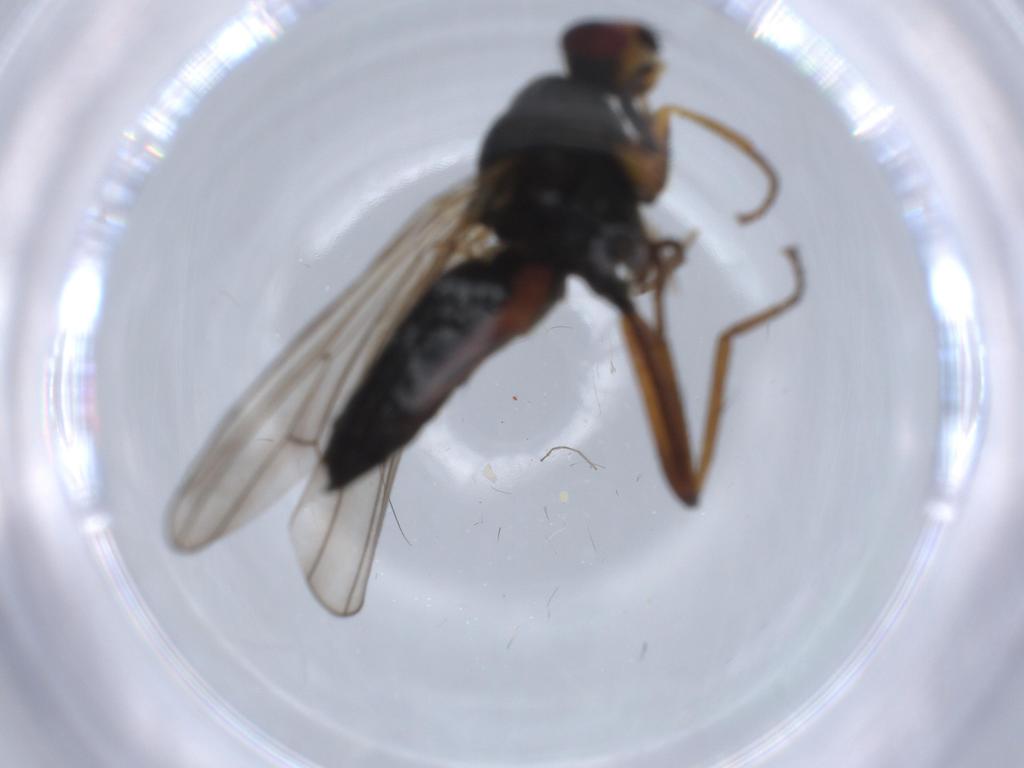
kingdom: Animalia
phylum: Arthropoda
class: Insecta
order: Diptera
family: Scathophagidae
